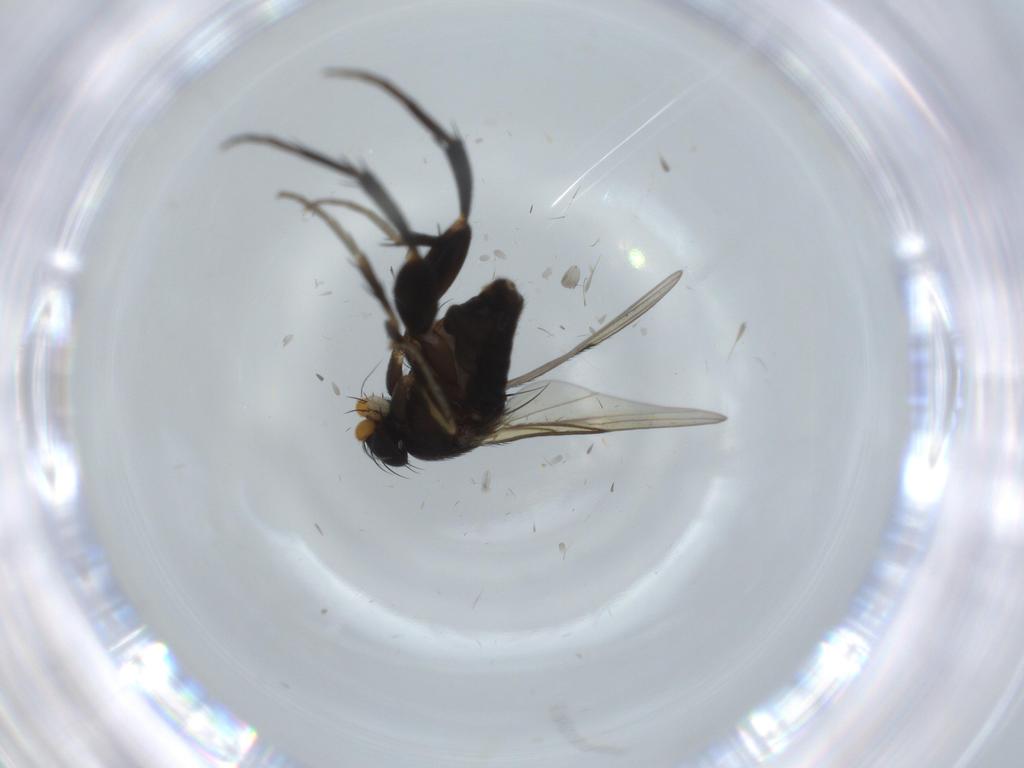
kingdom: Animalia
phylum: Arthropoda
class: Insecta
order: Diptera
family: Phoridae
